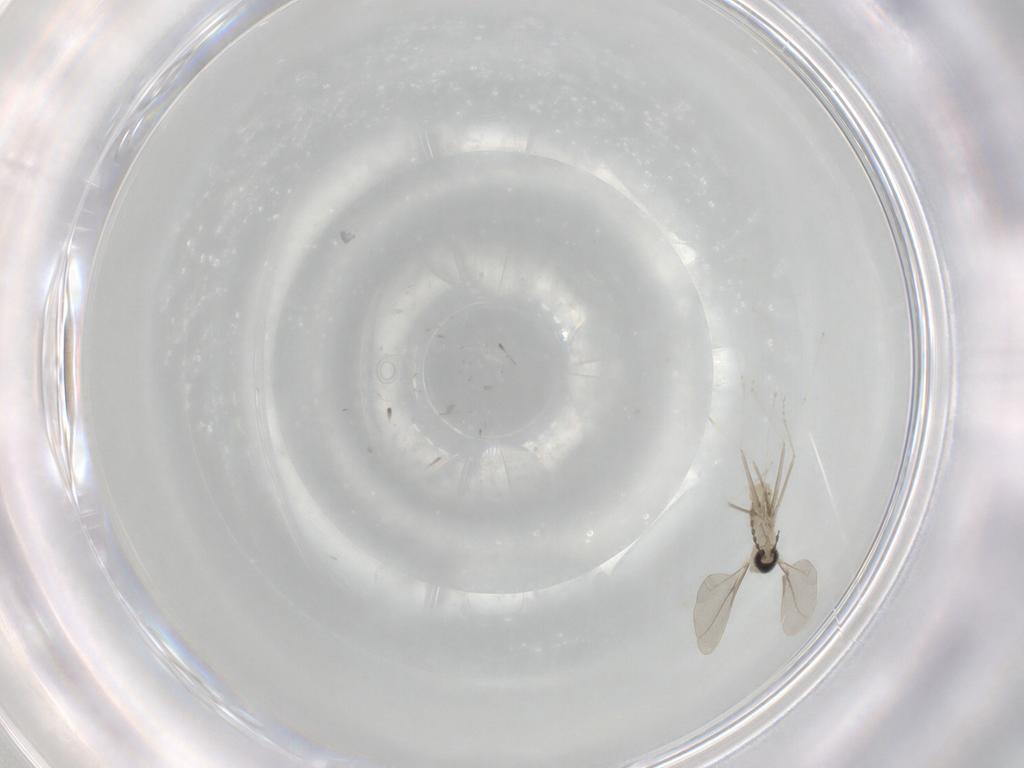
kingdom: Animalia
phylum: Arthropoda
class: Insecta
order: Diptera
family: Cecidomyiidae
